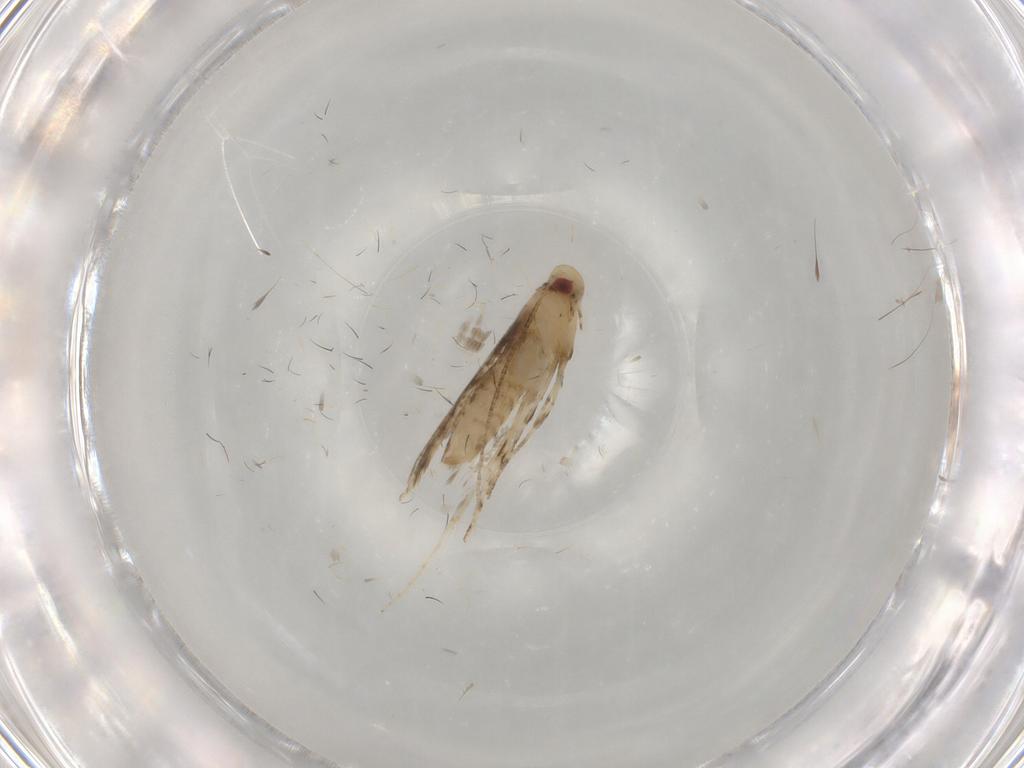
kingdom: Animalia
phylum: Arthropoda
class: Insecta
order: Lepidoptera
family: Gracillariidae
